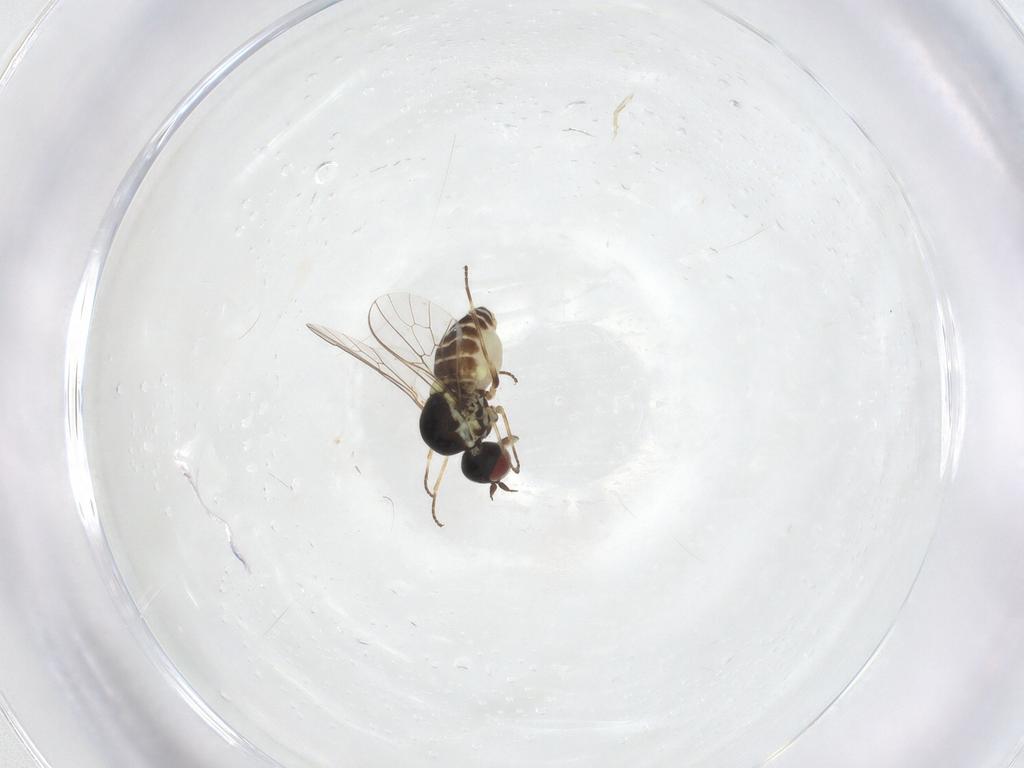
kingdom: Animalia
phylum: Arthropoda
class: Insecta
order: Diptera
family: Bombyliidae
